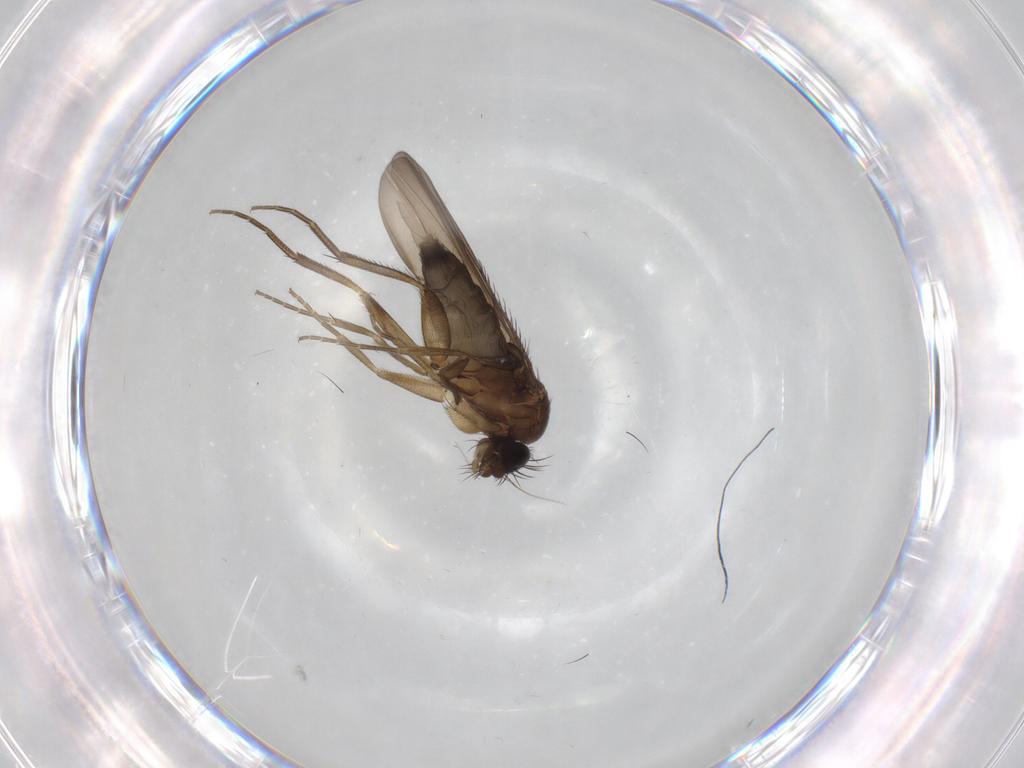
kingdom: Animalia
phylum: Arthropoda
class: Insecta
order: Diptera
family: Phoridae
